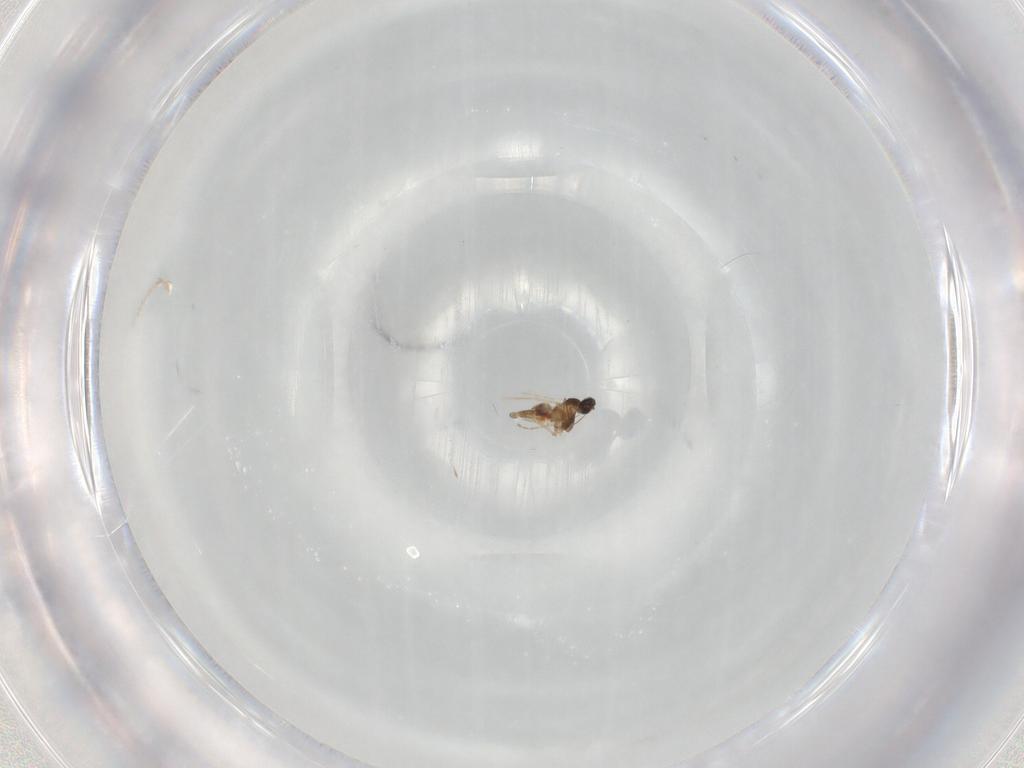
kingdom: Animalia
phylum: Arthropoda
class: Insecta
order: Diptera
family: Cecidomyiidae
